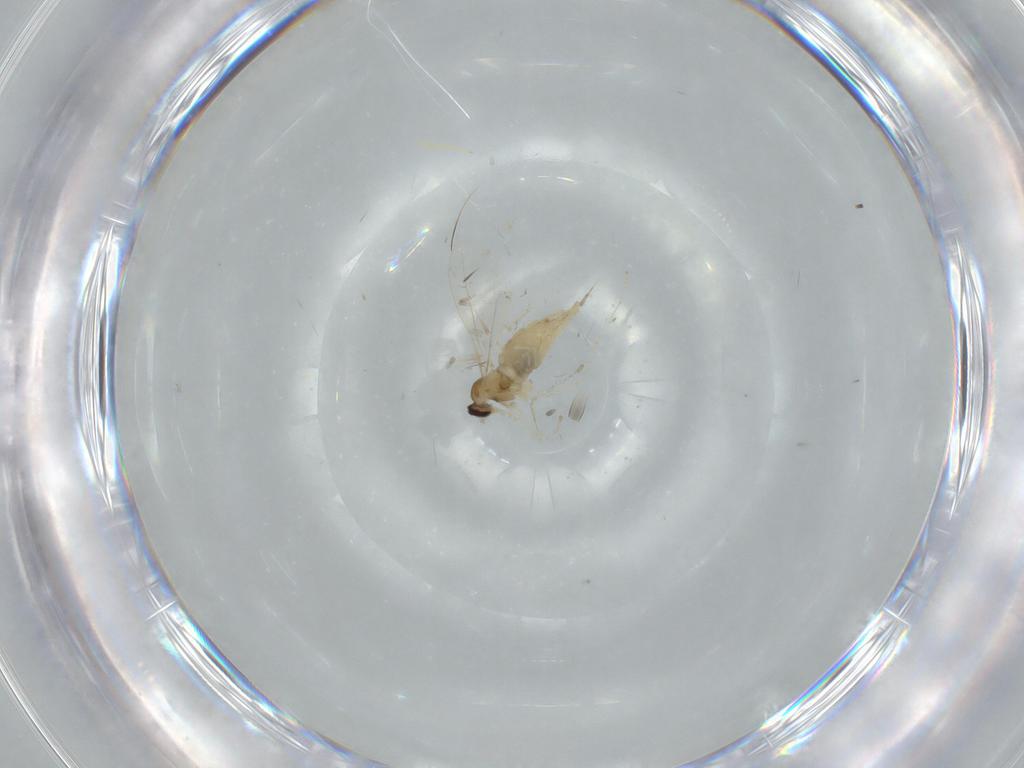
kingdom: Animalia
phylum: Arthropoda
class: Insecta
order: Diptera
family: Cecidomyiidae
